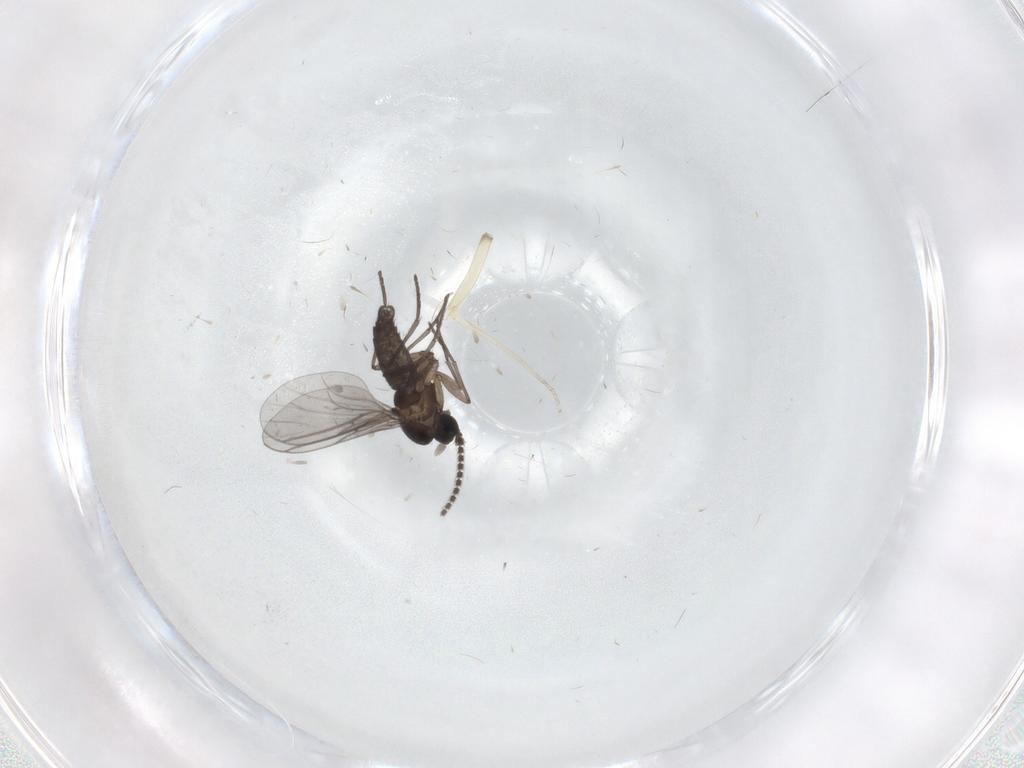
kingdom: Animalia
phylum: Arthropoda
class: Insecta
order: Diptera
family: Cecidomyiidae
